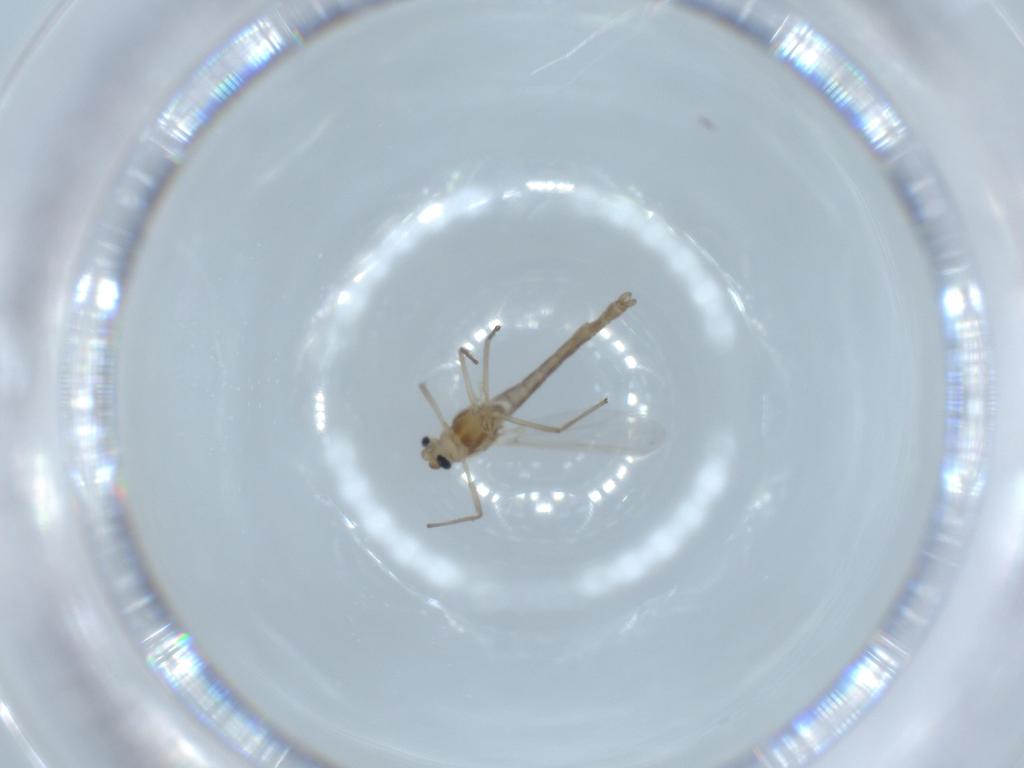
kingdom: Animalia
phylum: Arthropoda
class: Insecta
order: Diptera
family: Chironomidae
